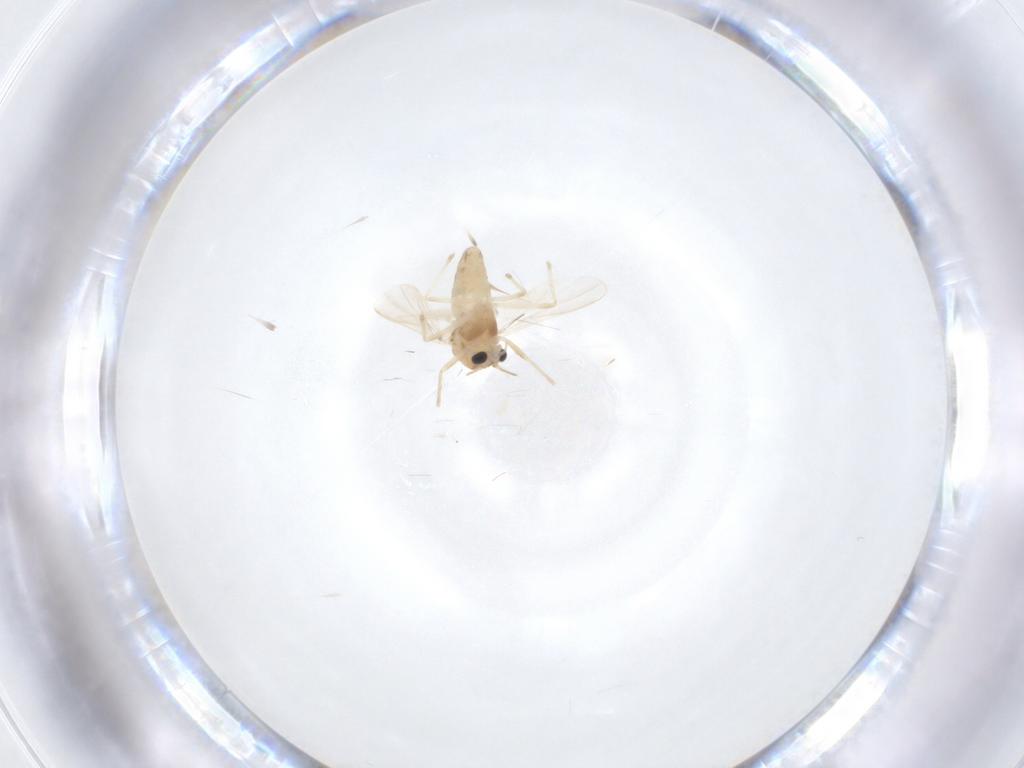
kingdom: Animalia
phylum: Arthropoda
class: Insecta
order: Diptera
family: Chironomidae
